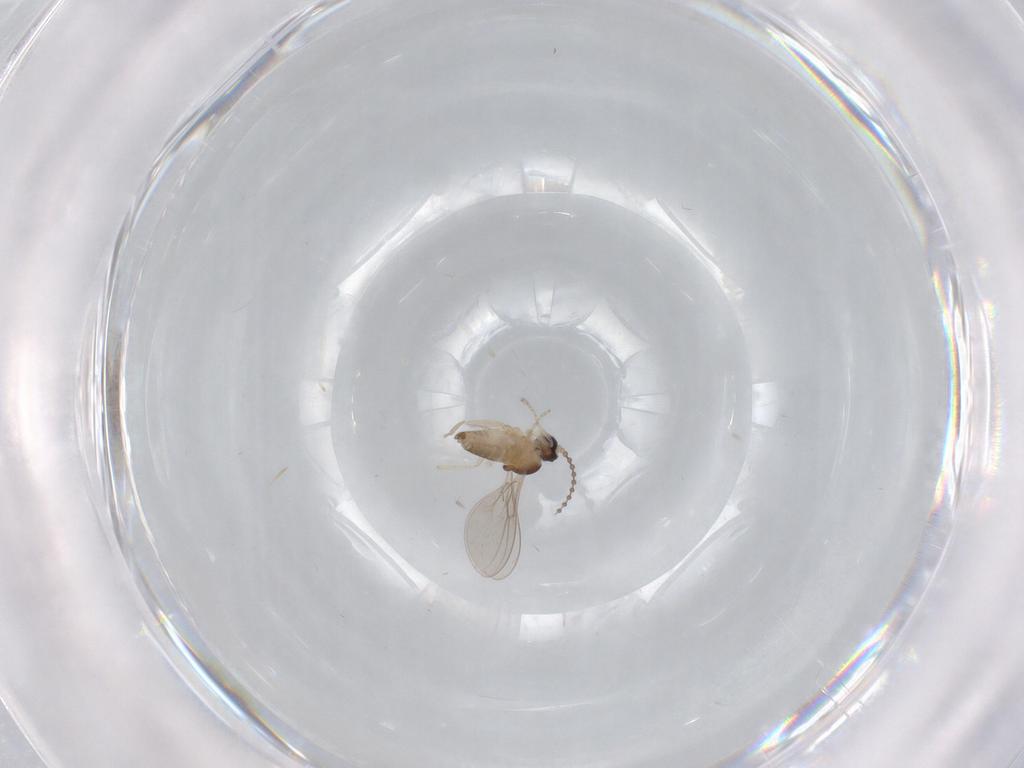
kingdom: Animalia
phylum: Arthropoda
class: Insecta
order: Diptera
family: Cecidomyiidae
